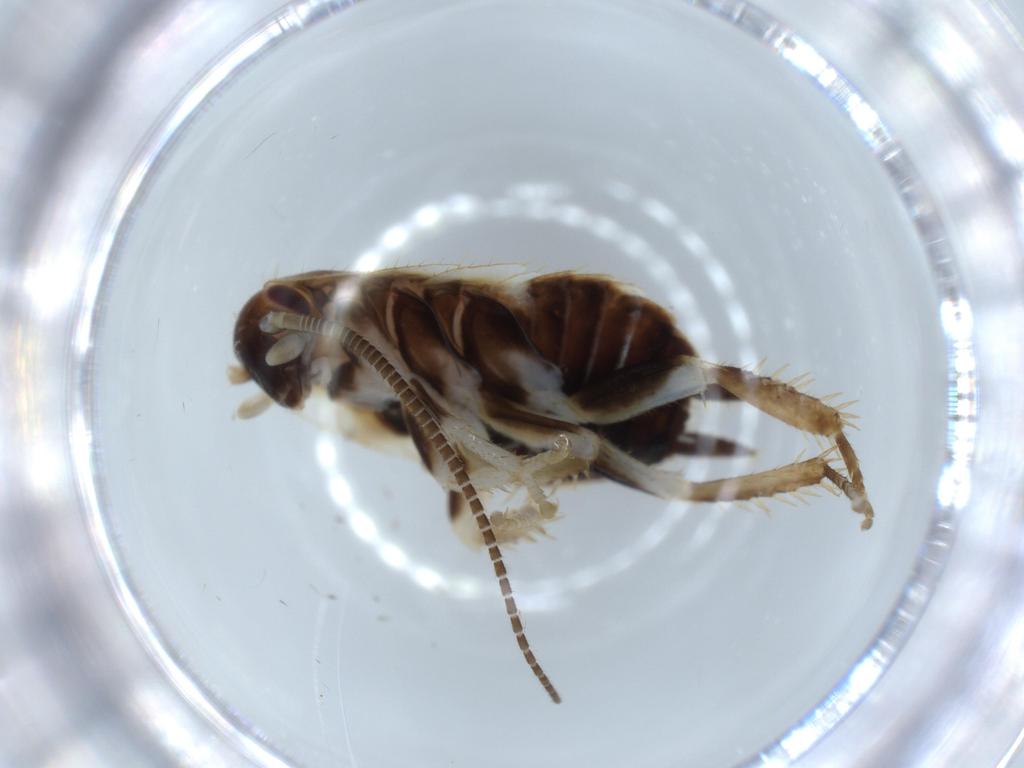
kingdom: Animalia
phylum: Arthropoda
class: Insecta
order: Blattodea
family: Ectobiidae
